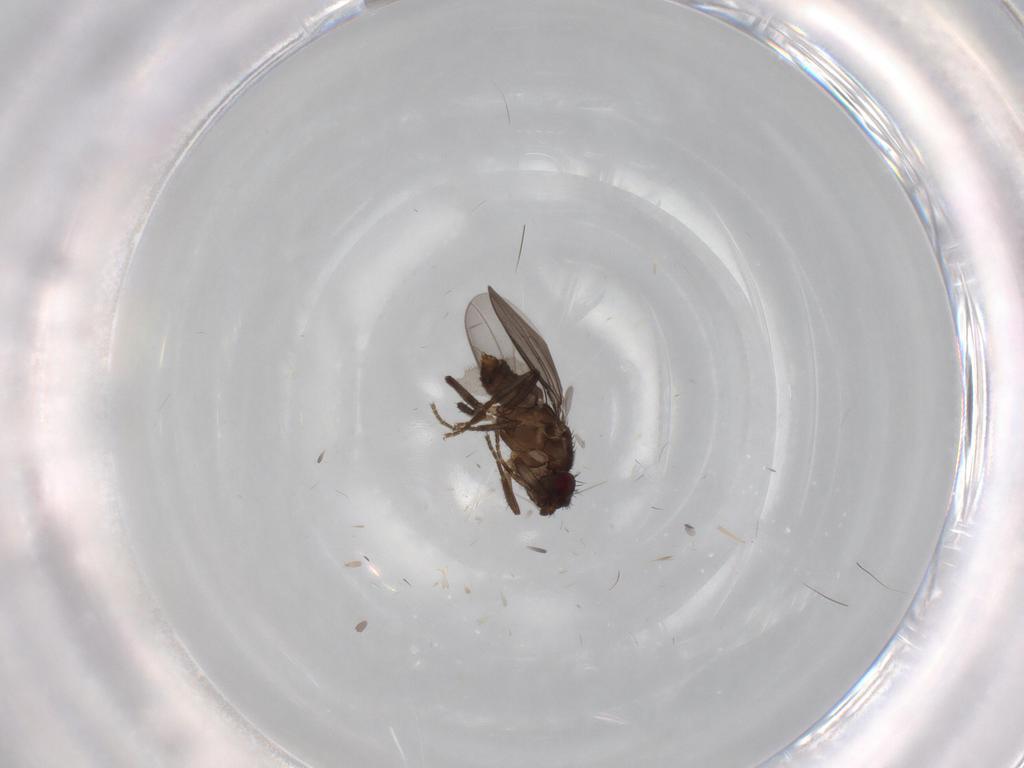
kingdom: Animalia
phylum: Arthropoda
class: Insecta
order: Diptera
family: Sphaeroceridae
